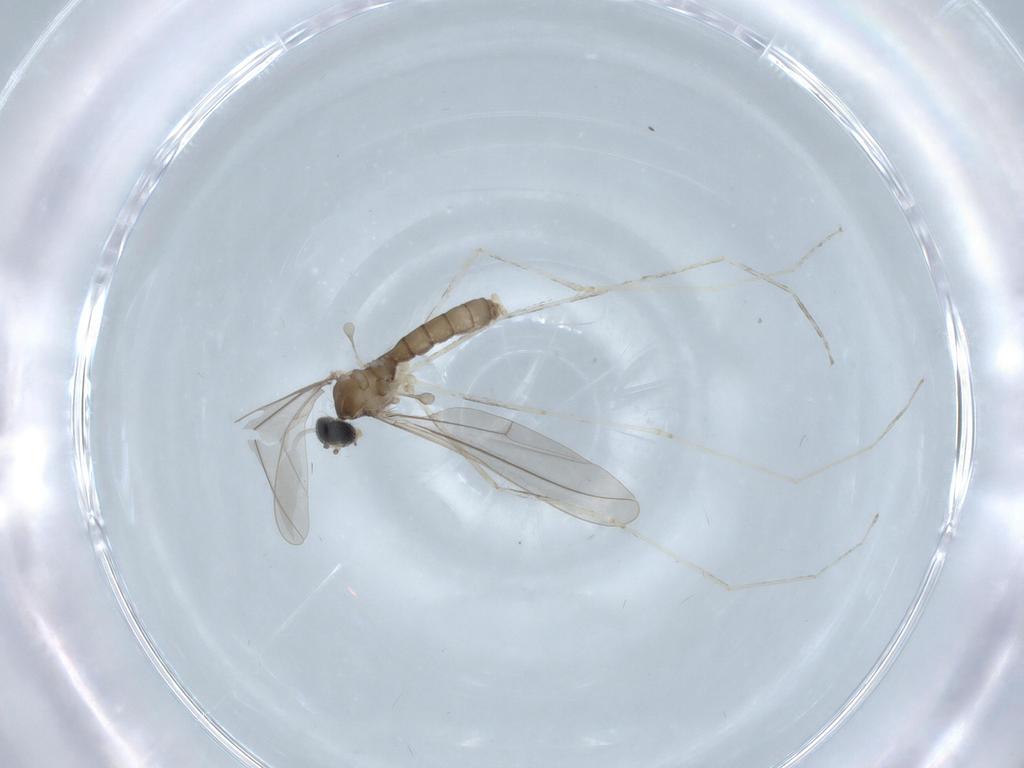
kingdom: Animalia
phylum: Arthropoda
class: Insecta
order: Diptera
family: Cecidomyiidae
